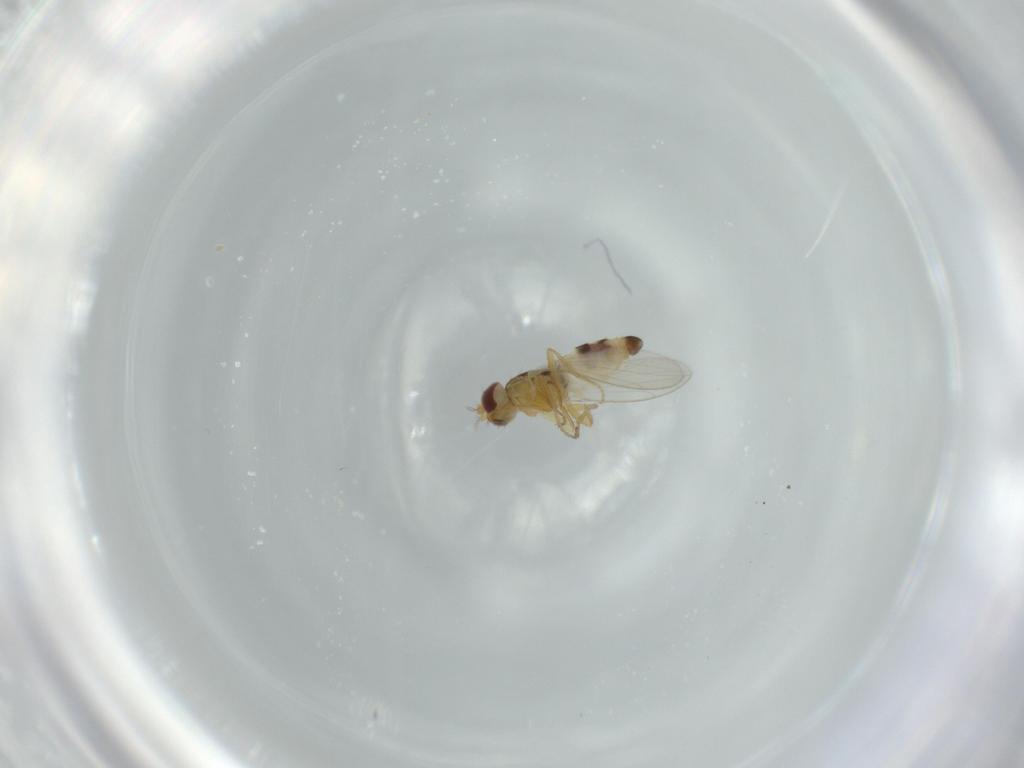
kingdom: Animalia
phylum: Arthropoda
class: Insecta
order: Diptera
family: Periscelididae
